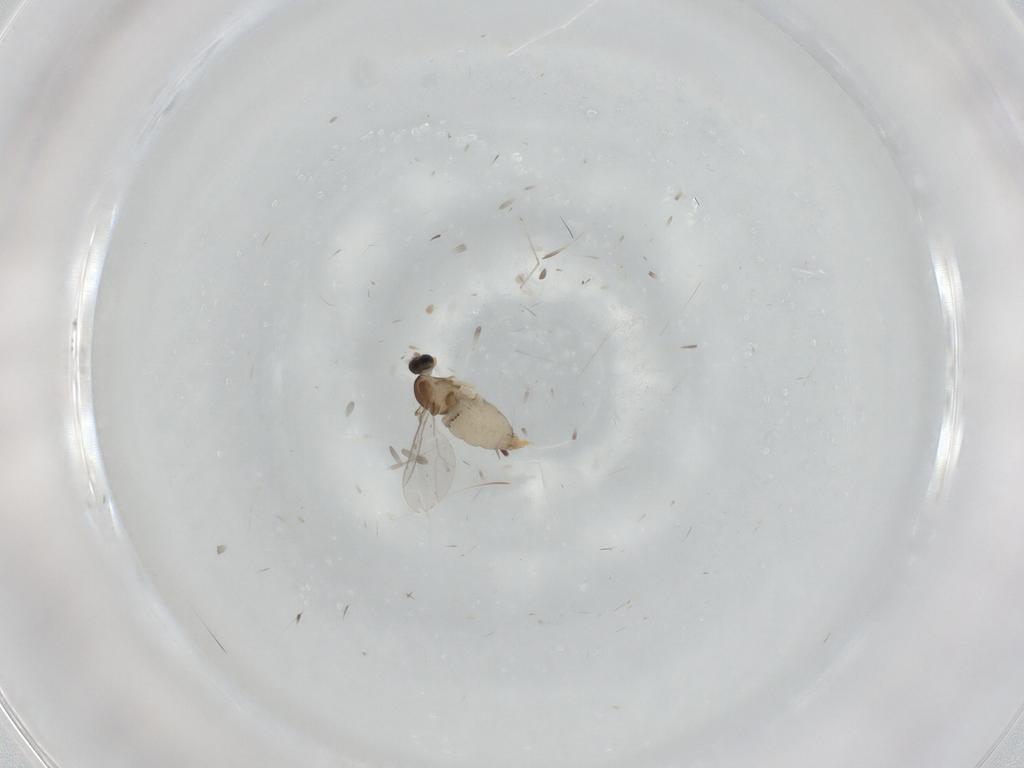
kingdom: Animalia
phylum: Arthropoda
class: Insecta
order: Diptera
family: Cecidomyiidae
